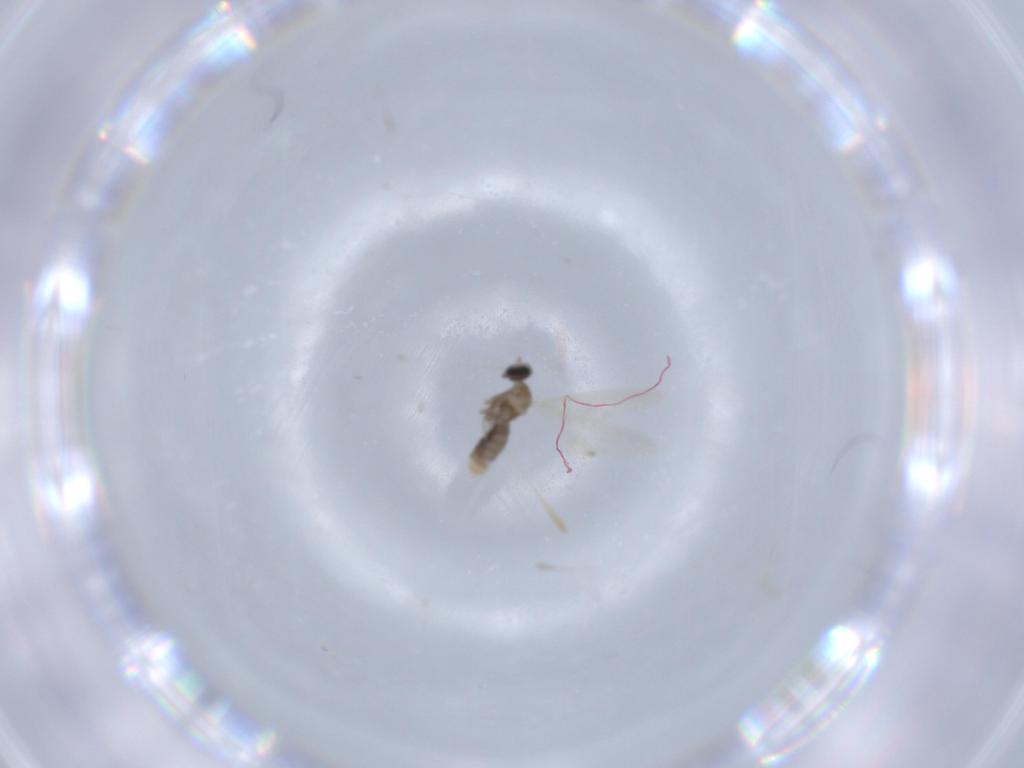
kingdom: Animalia
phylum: Arthropoda
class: Insecta
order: Diptera
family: Cecidomyiidae
